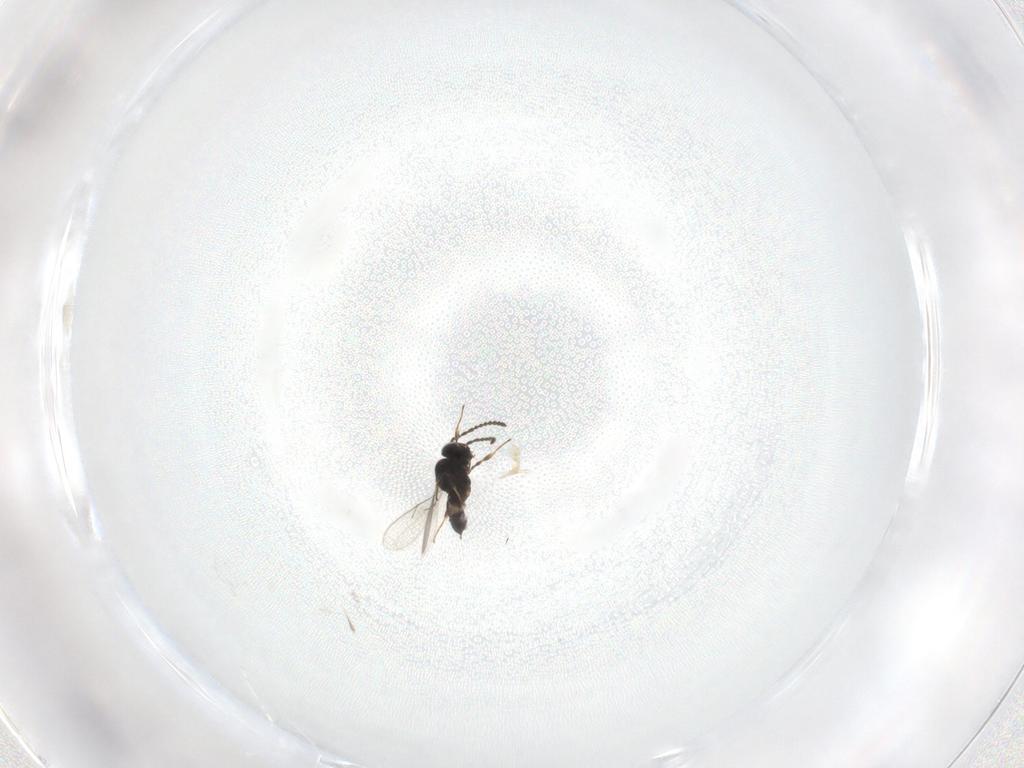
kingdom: Animalia
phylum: Arthropoda
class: Insecta
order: Hymenoptera
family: Scelionidae
